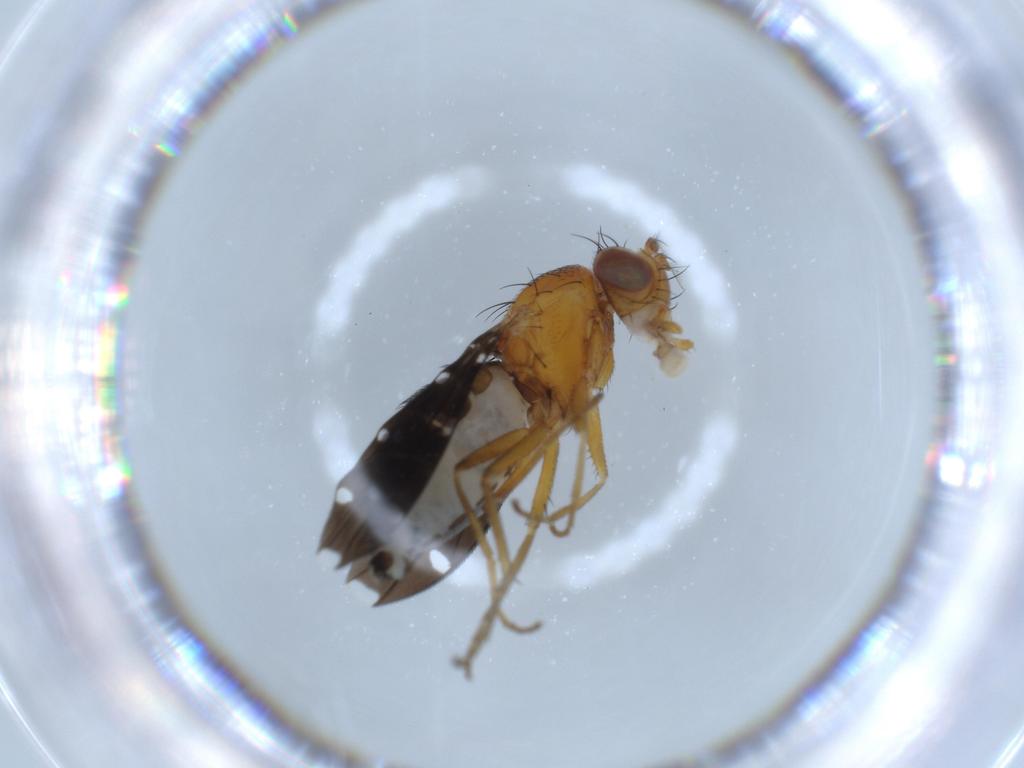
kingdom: Animalia
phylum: Arthropoda
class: Insecta
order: Diptera
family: Ephydridae
